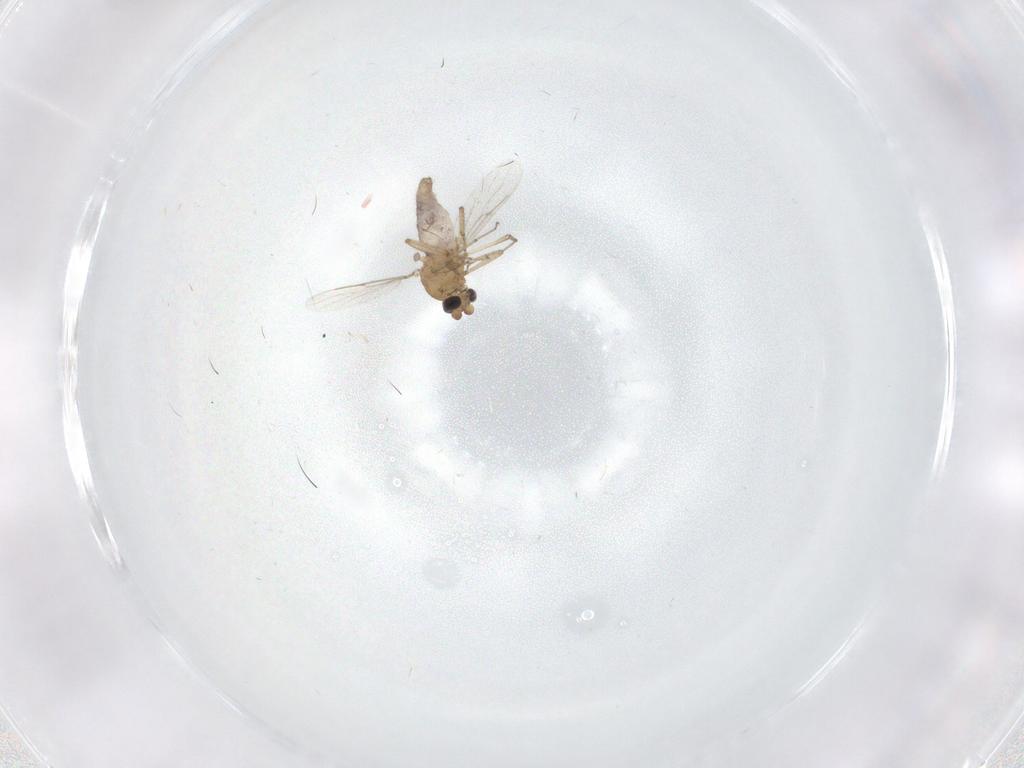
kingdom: Animalia
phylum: Arthropoda
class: Insecta
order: Diptera
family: Ceratopogonidae
